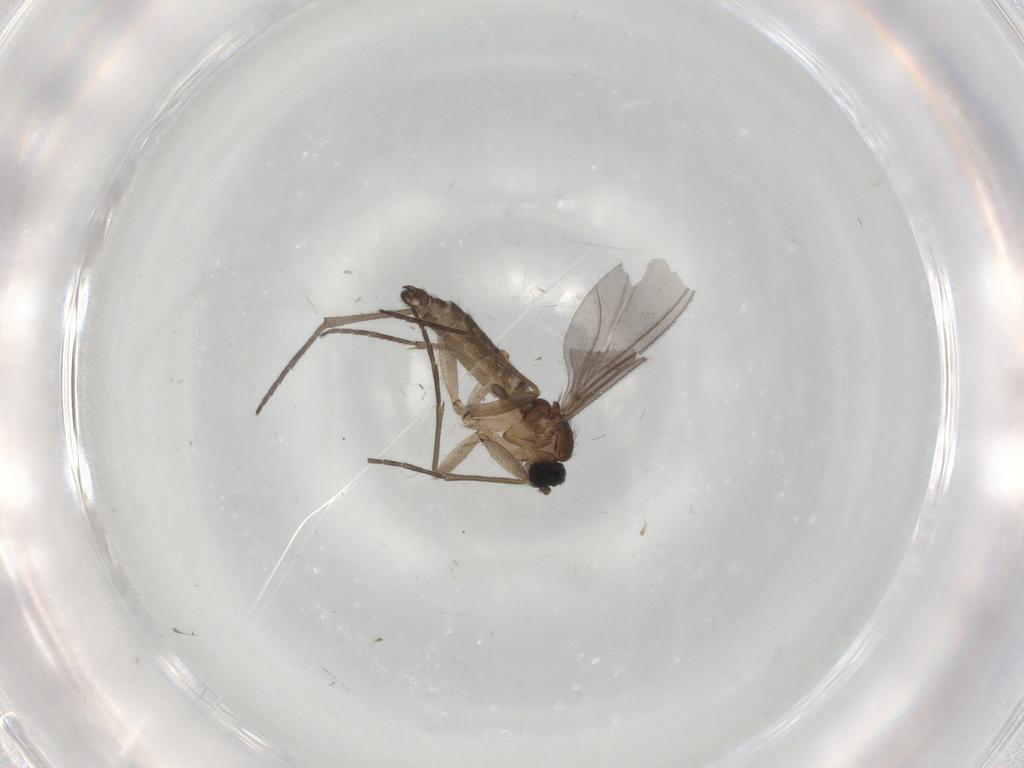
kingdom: Animalia
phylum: Arthropoda
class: Insecta
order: Diptera
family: Sciaridae
